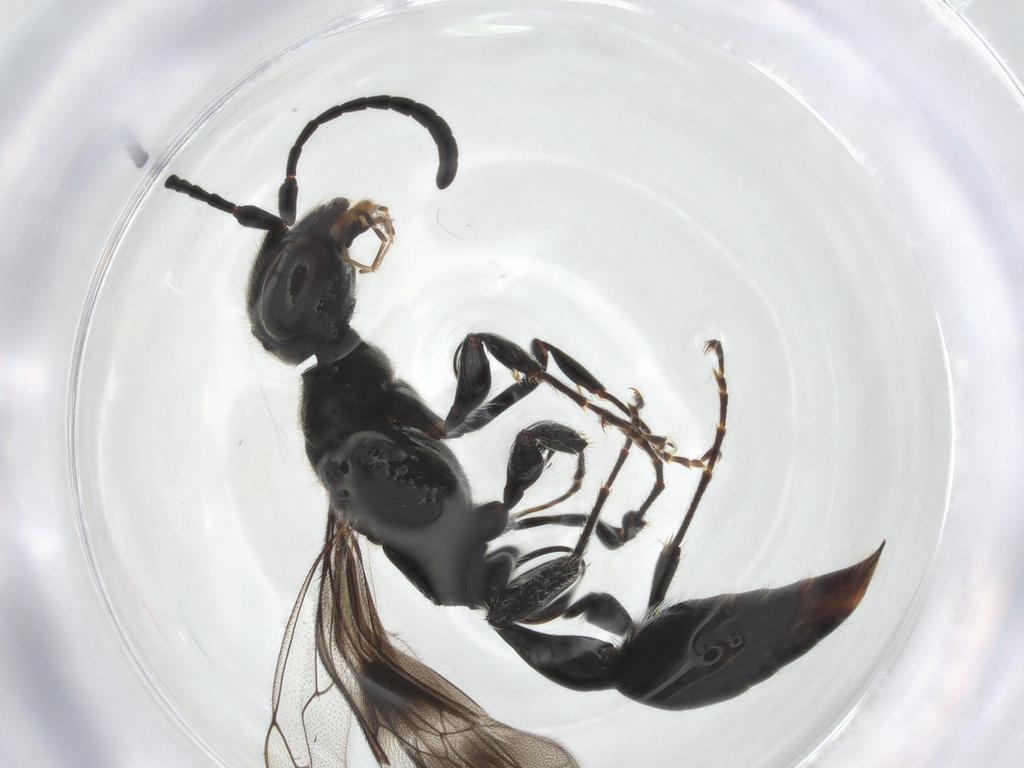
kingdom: Animalia
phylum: Arthropoda
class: Insecta
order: Hymenoptera
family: Thynnidae
